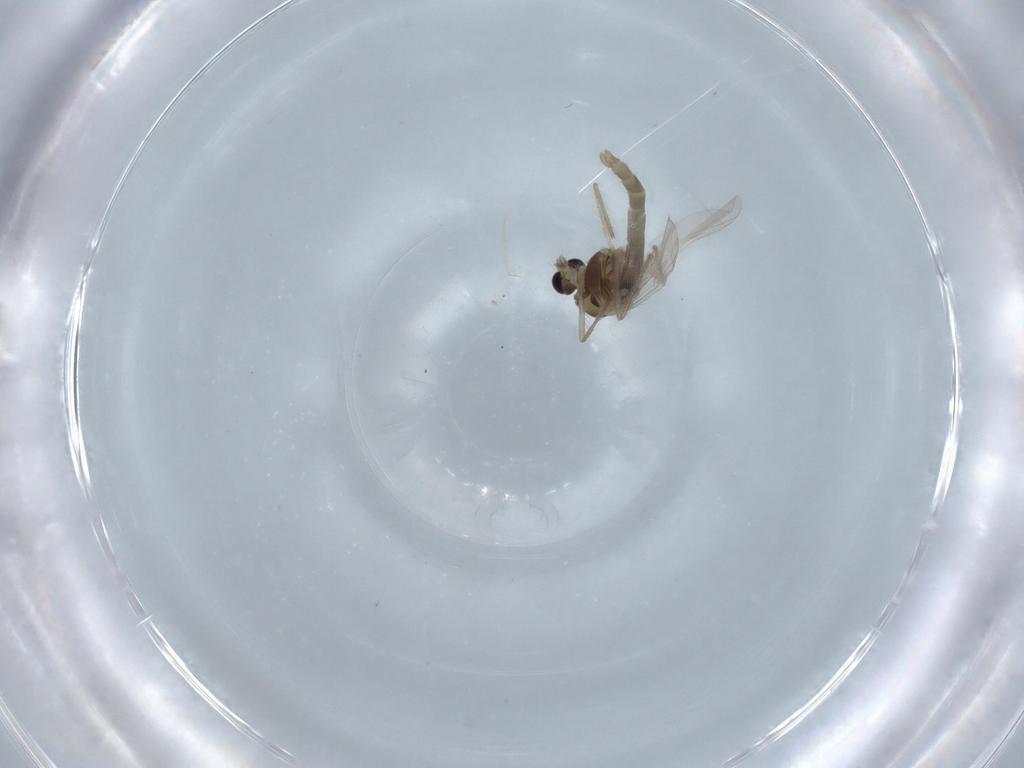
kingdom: Animalia
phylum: Arthropoda
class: Insecta
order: Diptera
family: Chironomidae
